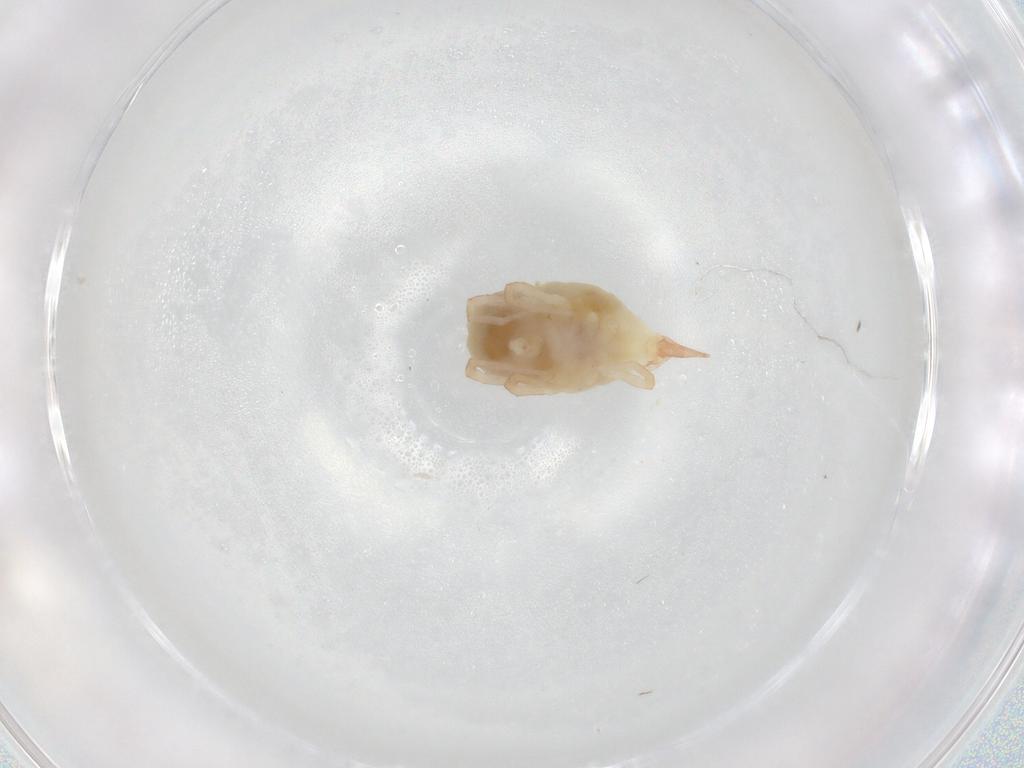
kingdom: Animalia
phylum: Arthropoda
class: Arachnida
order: Trombidiformes
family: Bdellidae
